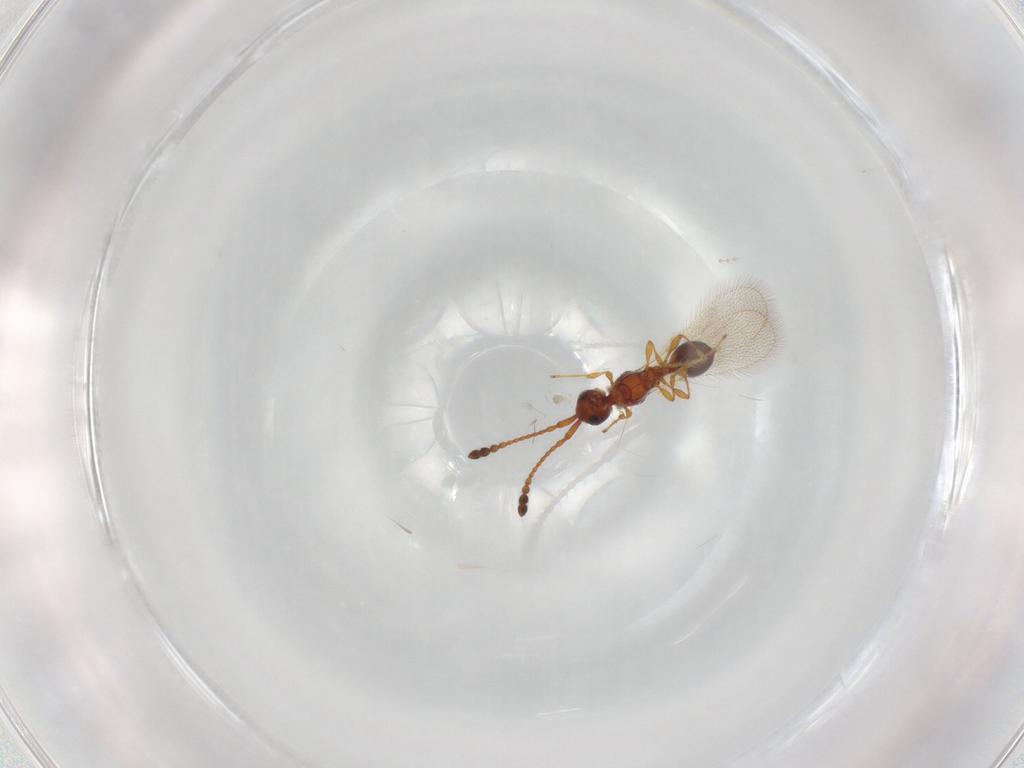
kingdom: Animalia
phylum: Arthropoda
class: Insecta
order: Hymenoptera
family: Diapriidae
